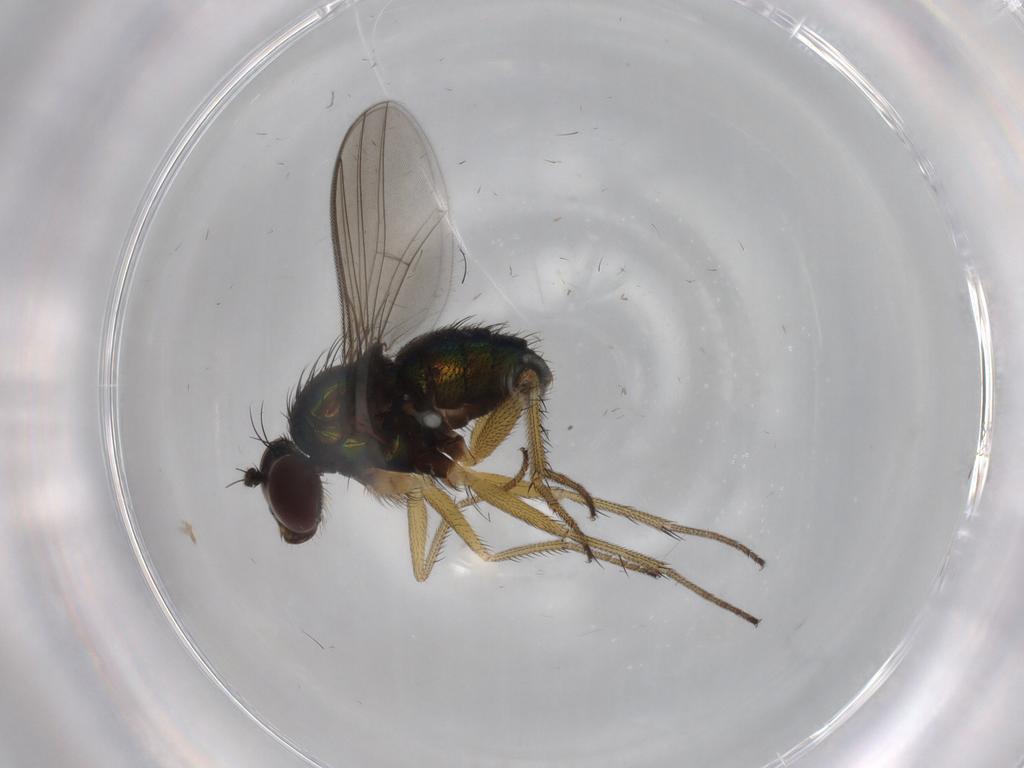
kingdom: Animalia
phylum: Arthropoda
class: Insecta
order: Diptera
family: Dolichopodidae
